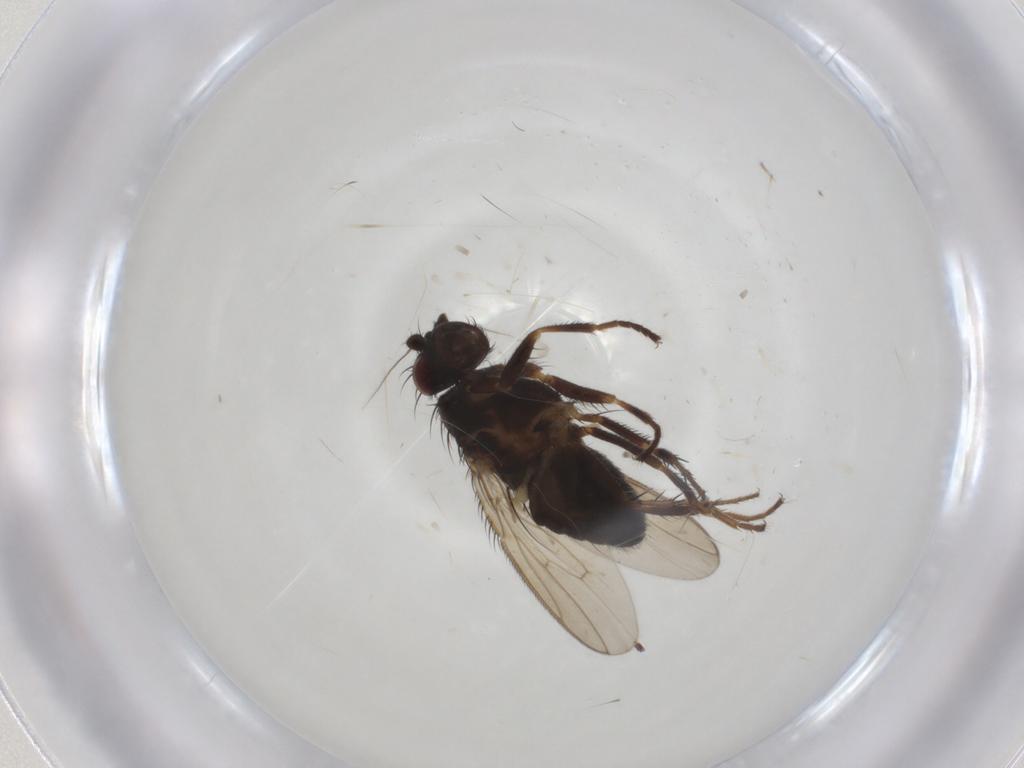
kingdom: Animalia
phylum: Arthropoda
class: Insecta
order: Diptera
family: Sphaeroceridae
